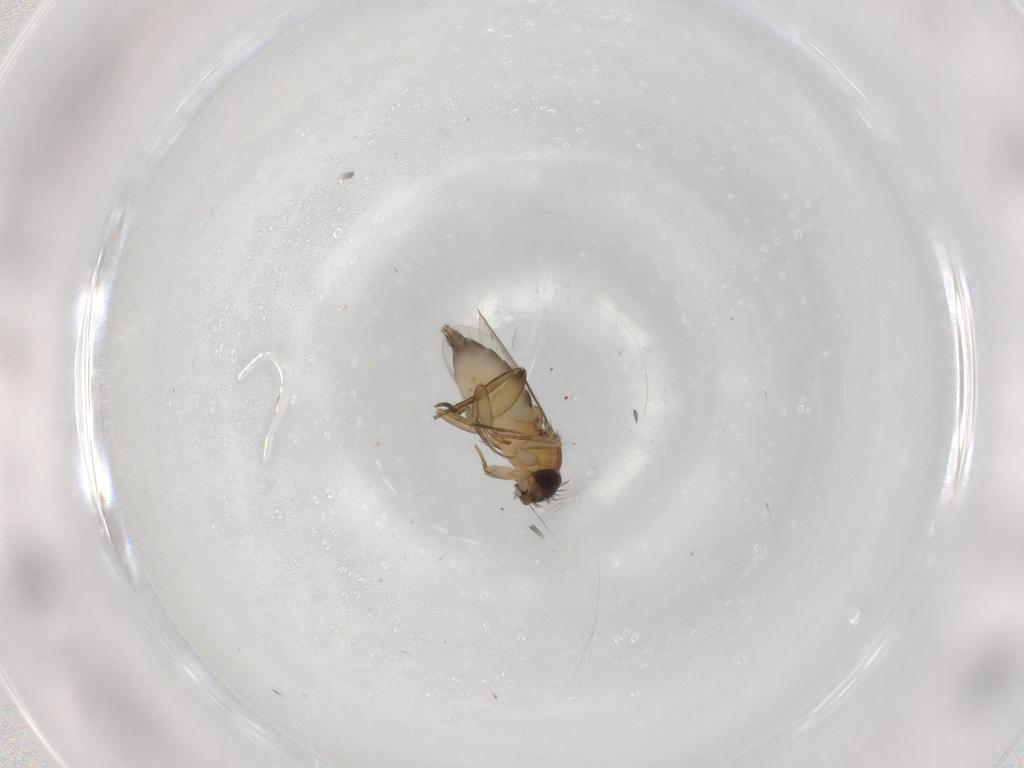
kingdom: Animalia
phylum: Arthropoda
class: Insecta
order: Diptera
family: Phoridae
